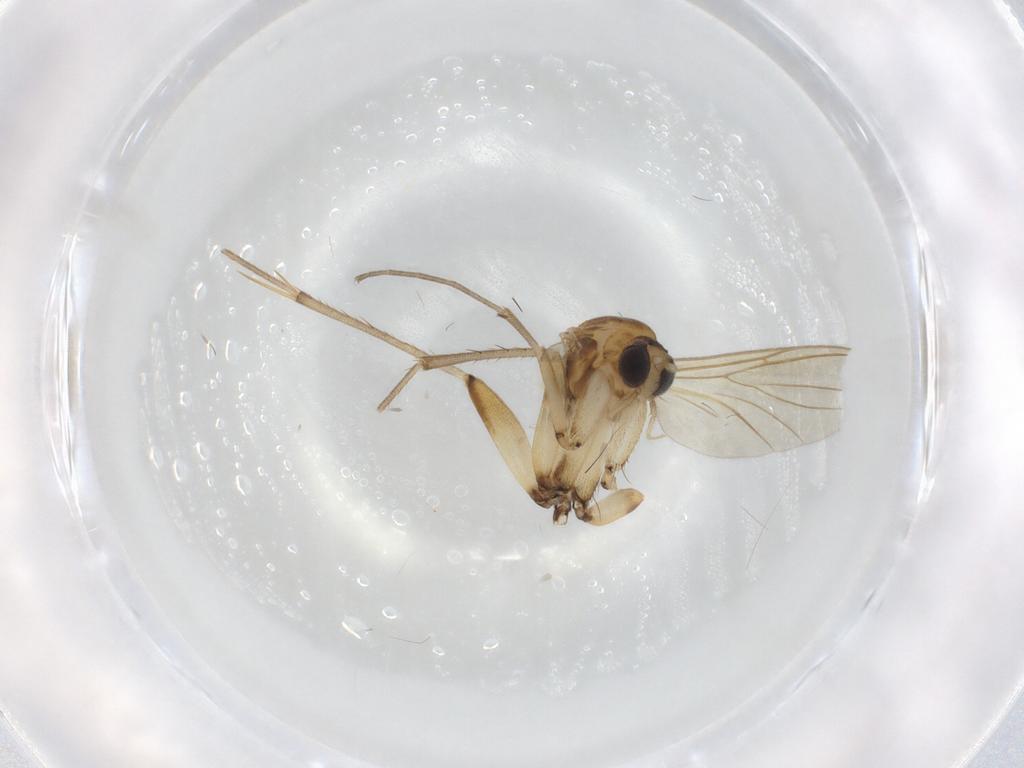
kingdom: Animalia
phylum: Arthropoda
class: Insecta
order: Diptera
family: Sciaridae
